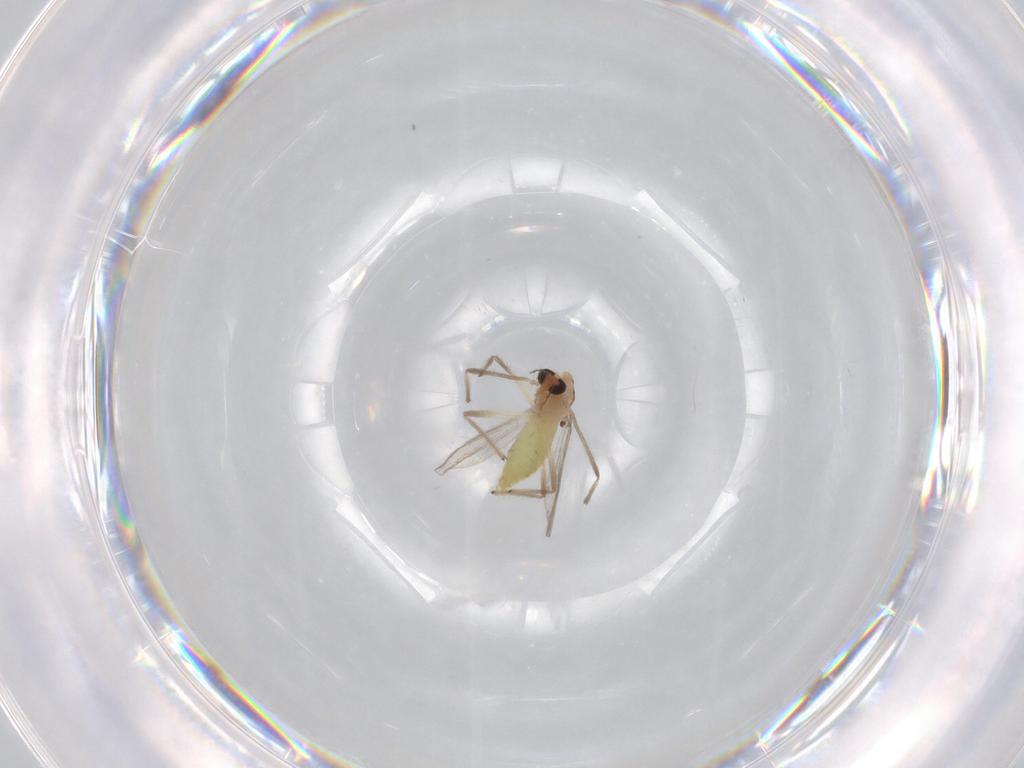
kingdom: Animalia
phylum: Arthropoda
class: Insecta
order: Diptera
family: Chironomidae
